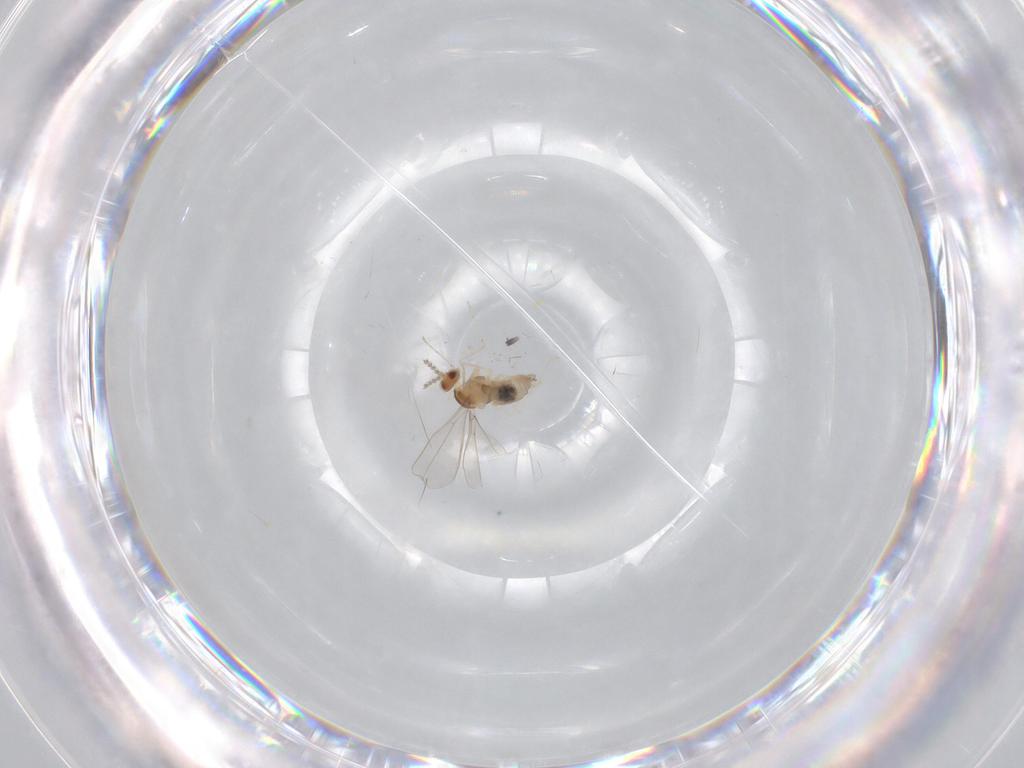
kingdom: Animalia
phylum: Arthropoda
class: Insecta
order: Diptera
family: Cecidomyiidae
